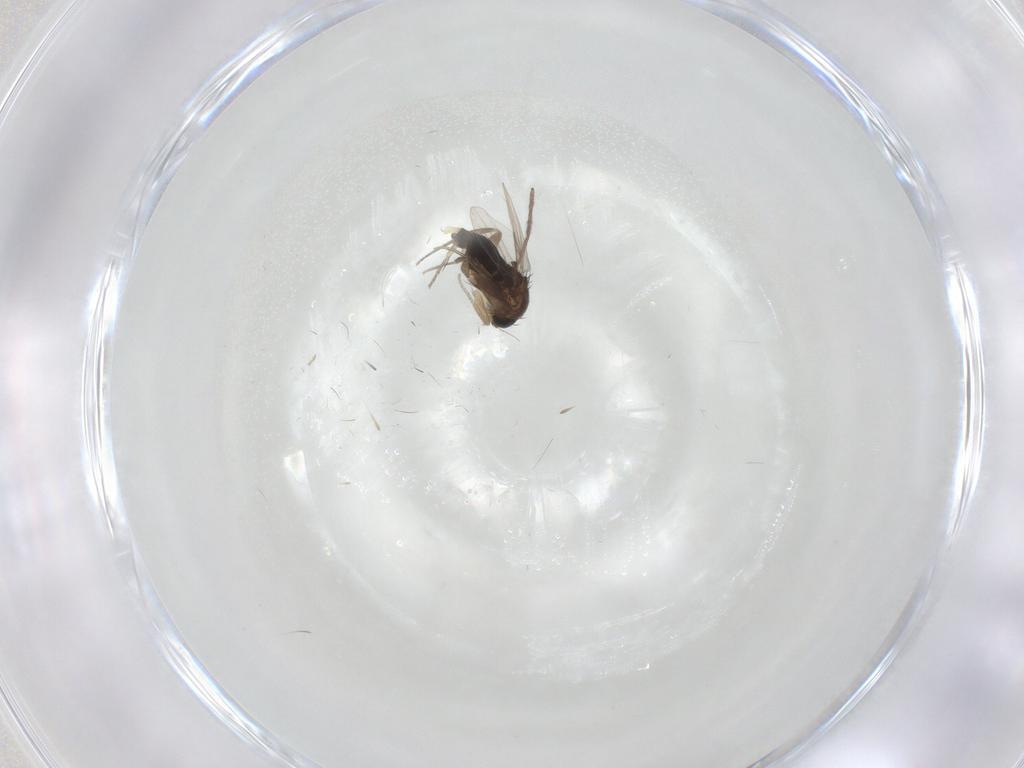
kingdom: Animalia
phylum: Arthropoda
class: Insecta
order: Diptera
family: Phoridae
